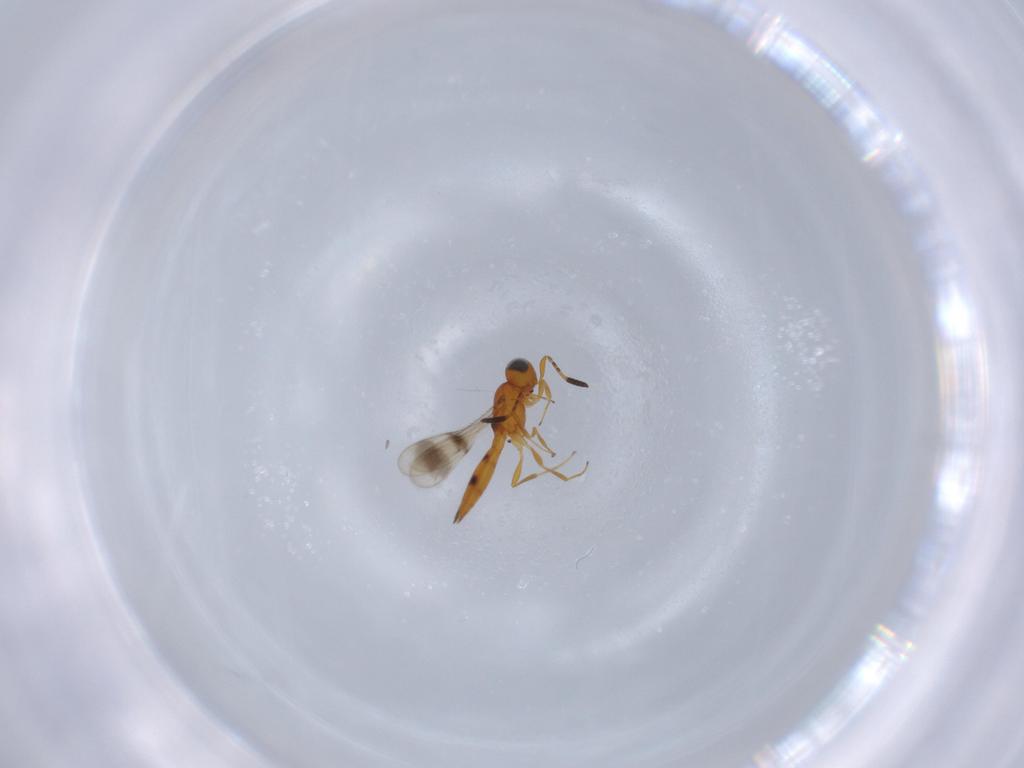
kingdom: Animalia
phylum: Arthropoda
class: Insecta
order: Hymenoptera
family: Scelionidae
